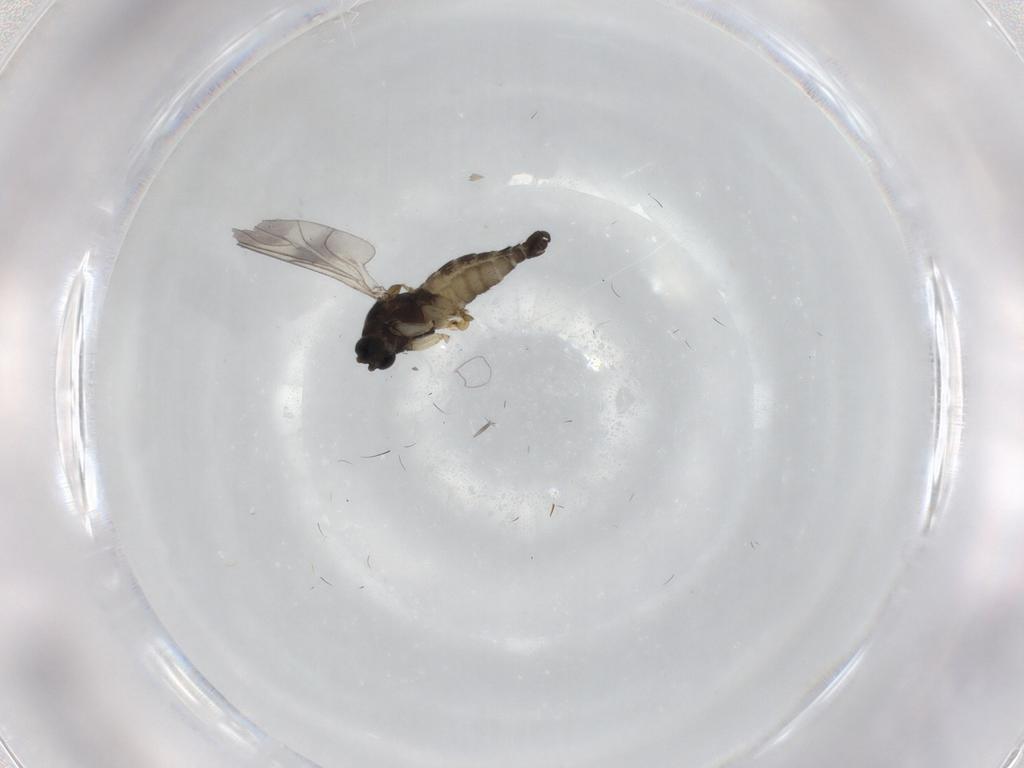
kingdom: Animalia
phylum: Arthropoda
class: Insecta
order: Diptera
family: Sciaridae
